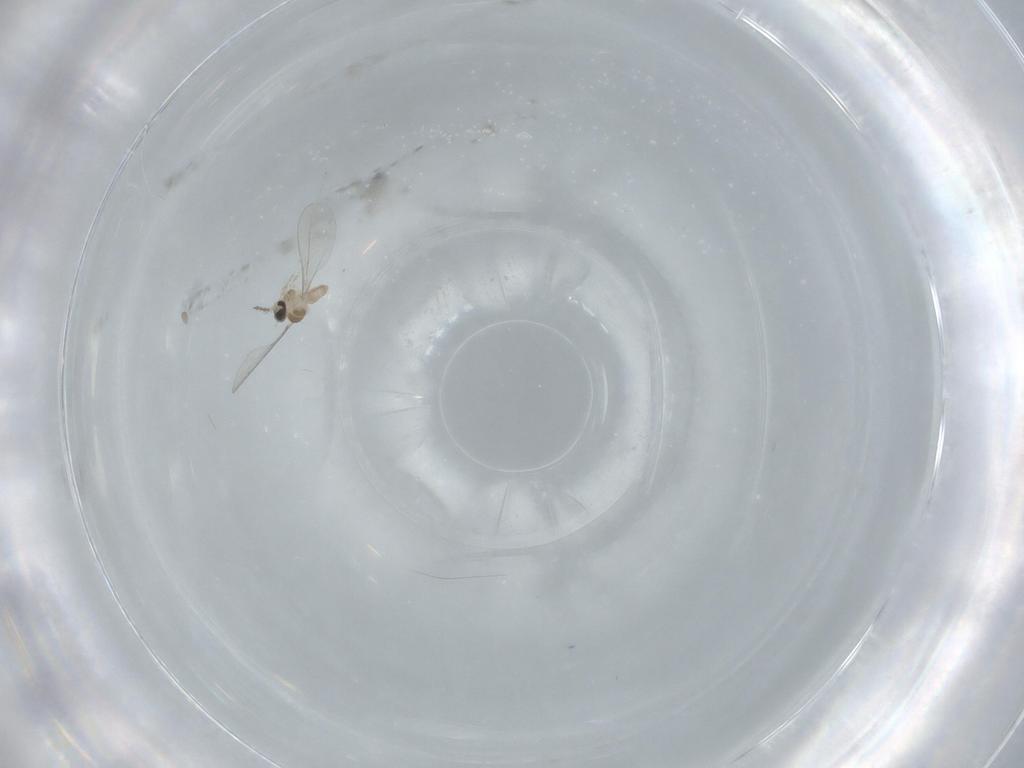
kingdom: Animalia
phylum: Arthropoda
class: Insecta
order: Diptera
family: Cecidomyiidae
